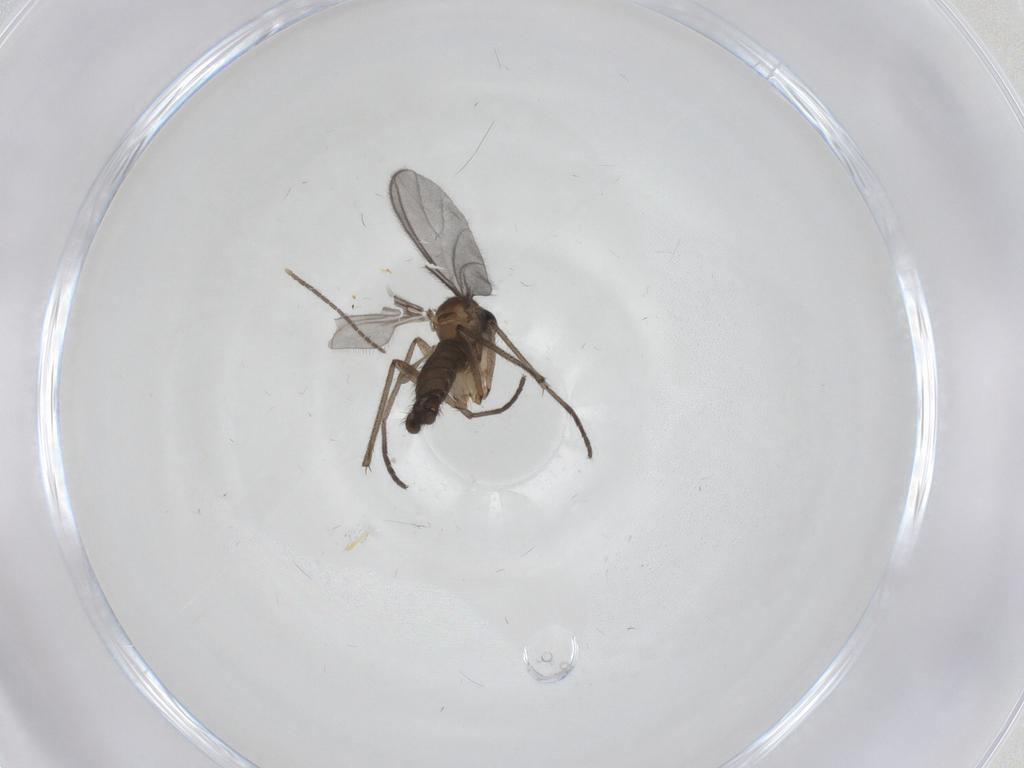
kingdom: Animalia
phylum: Arthropoda
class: Insecta
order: Diptera
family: Sciaridae
